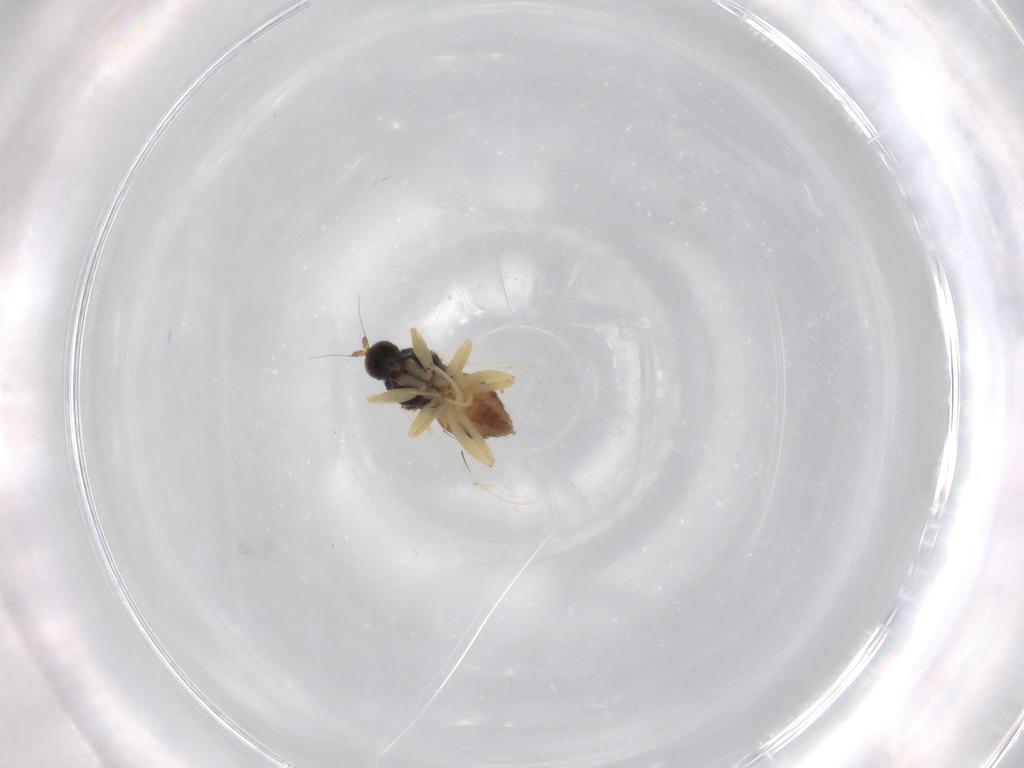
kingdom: Animalia
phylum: Arthropoda
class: Insecta
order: Diptera
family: Hybotidae
